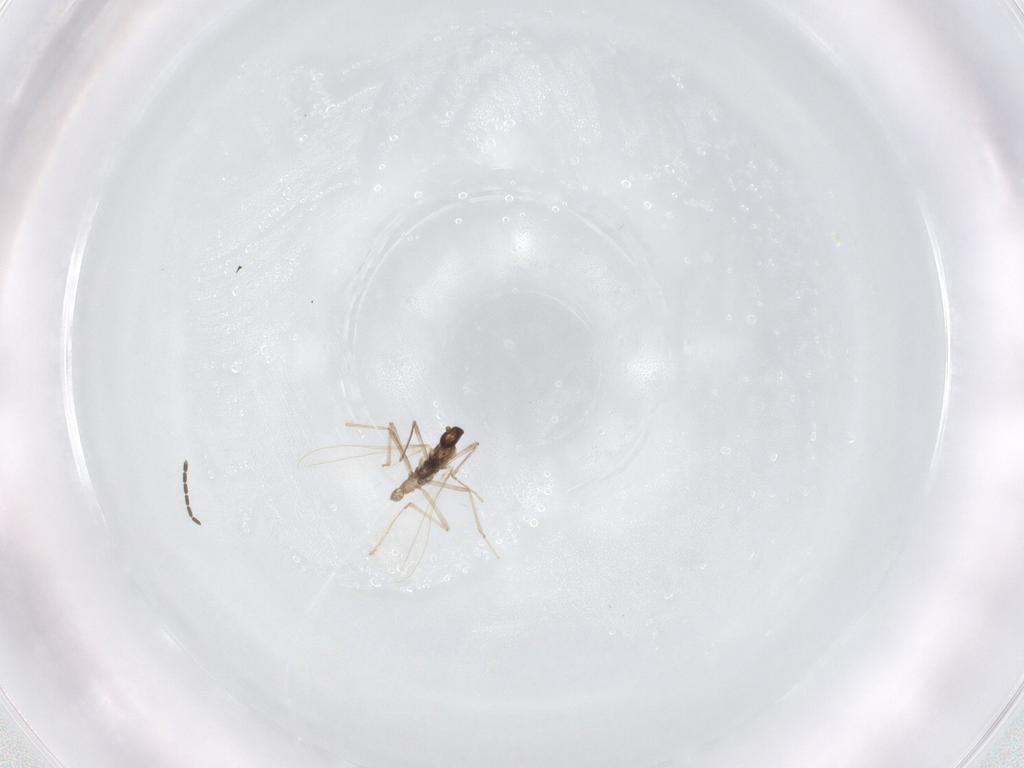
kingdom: Animalia
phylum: Arthropoda
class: Insecta
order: Diptera
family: Cecidomyiidae
